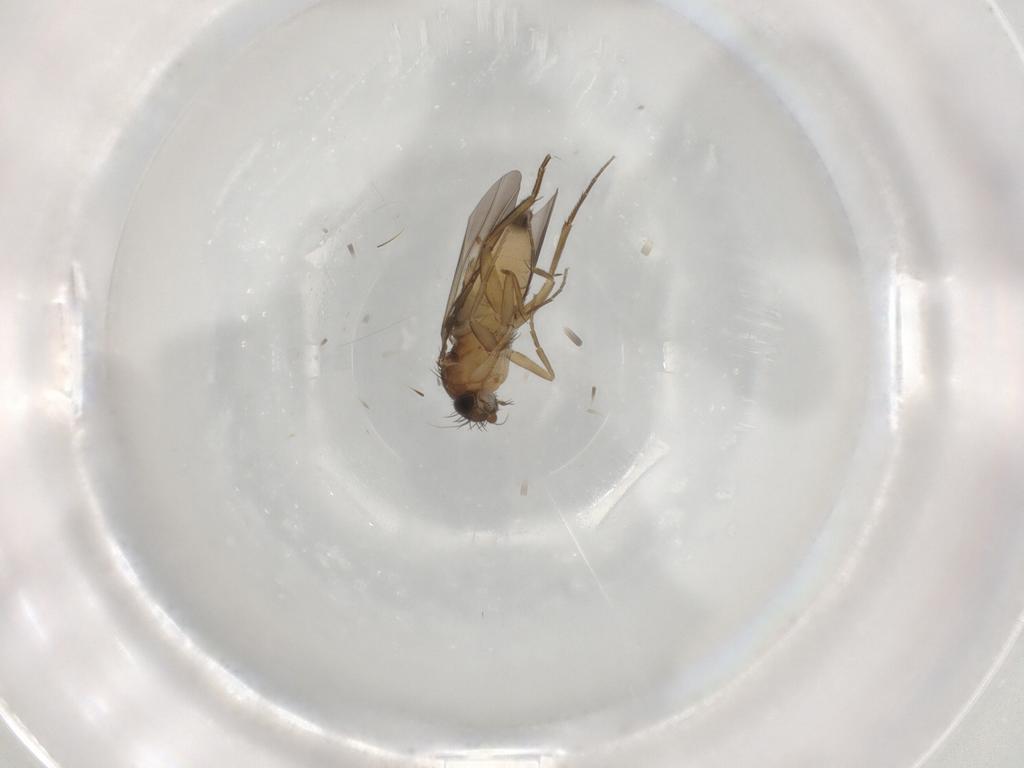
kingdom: Animalia
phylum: Arthropoda
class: Insecta
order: Diptera
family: Phoridae
